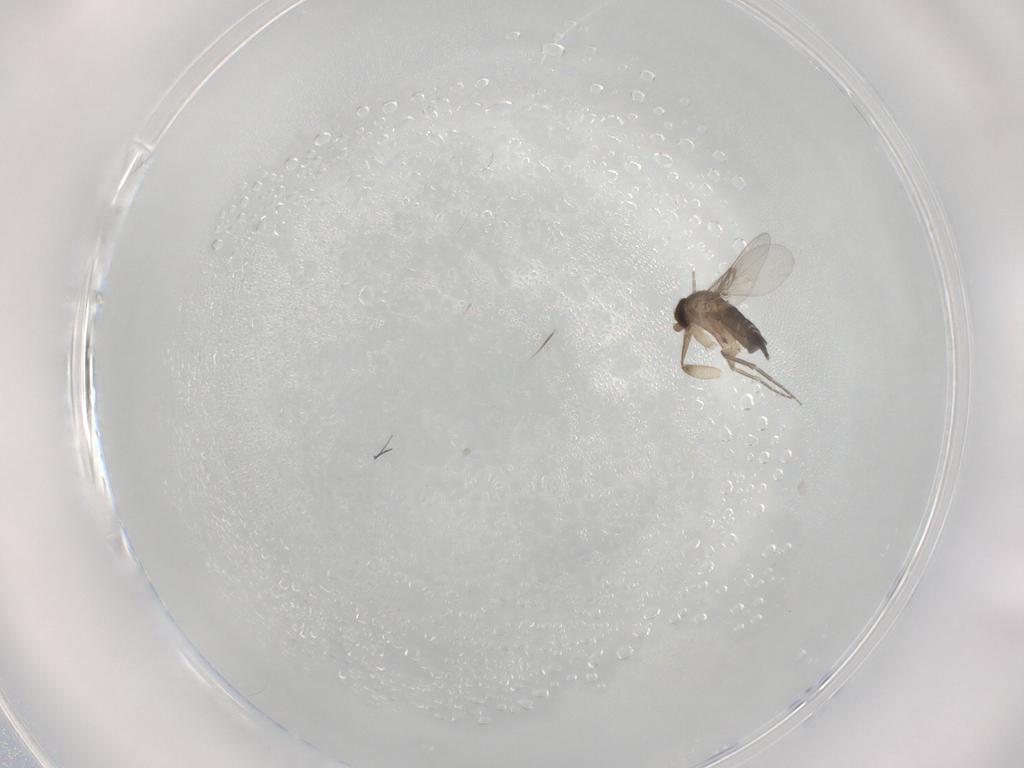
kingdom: Animalia
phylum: Arthropoda
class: Insecta
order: Diptera
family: Phoridae
